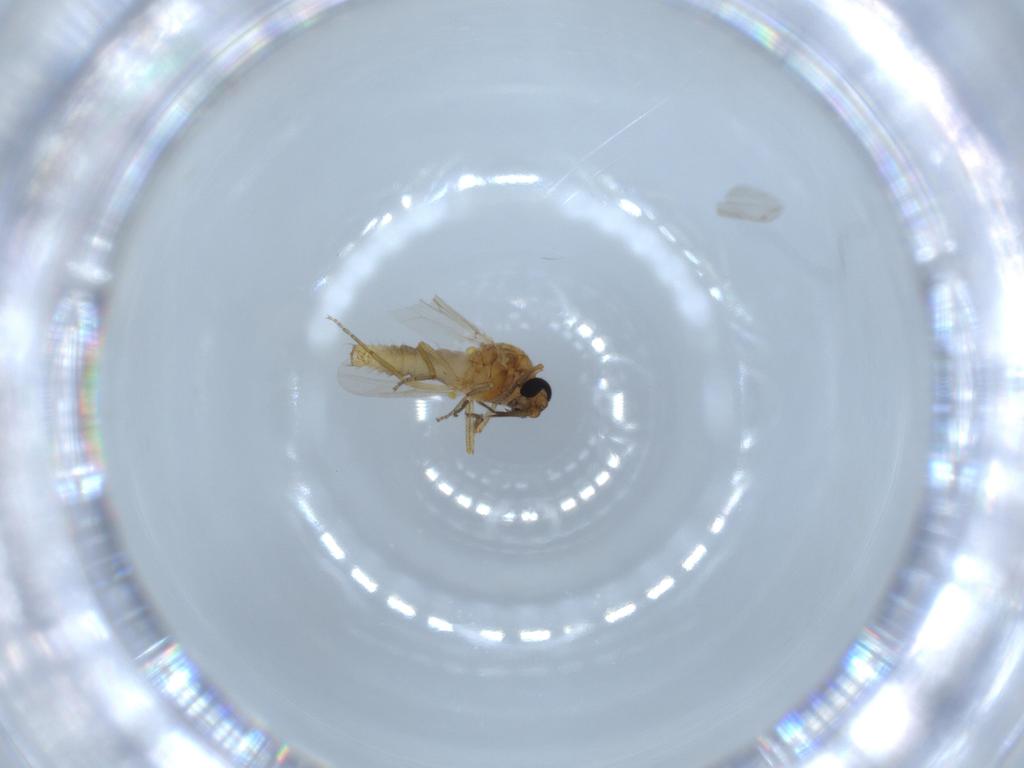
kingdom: Animalia
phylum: Arthropoda
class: Insecta
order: Diptera
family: Ceratopogonidae
